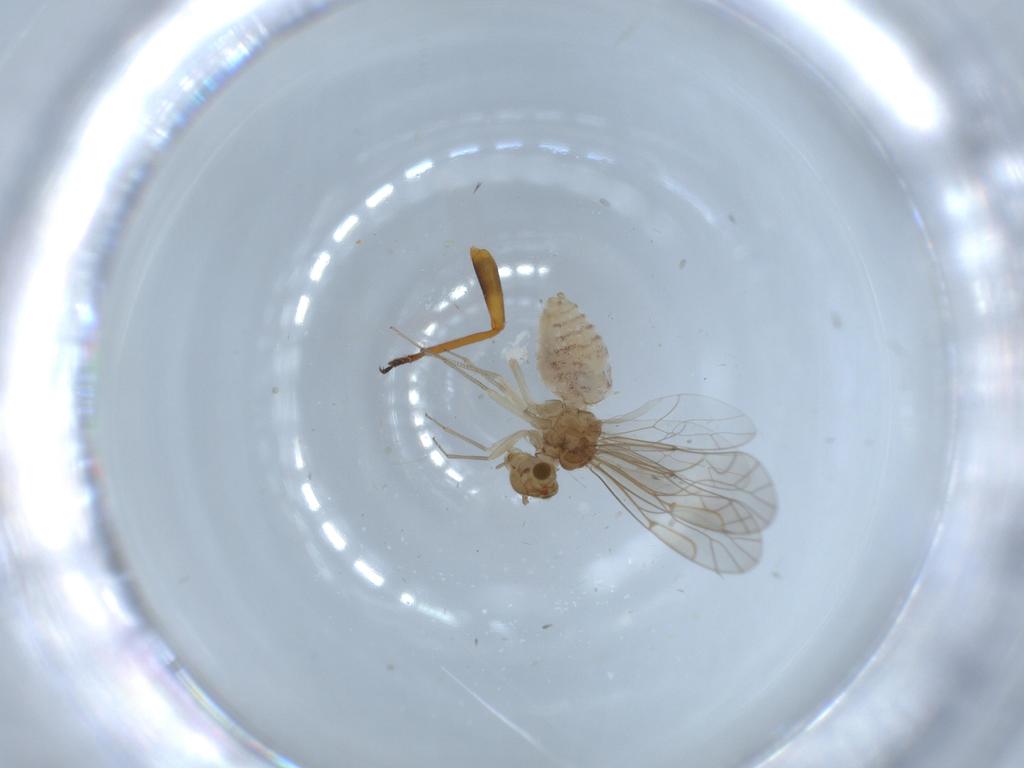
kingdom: Animalia
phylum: Arthropoda
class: Insecta
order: Psocodea
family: Lachesillidae
